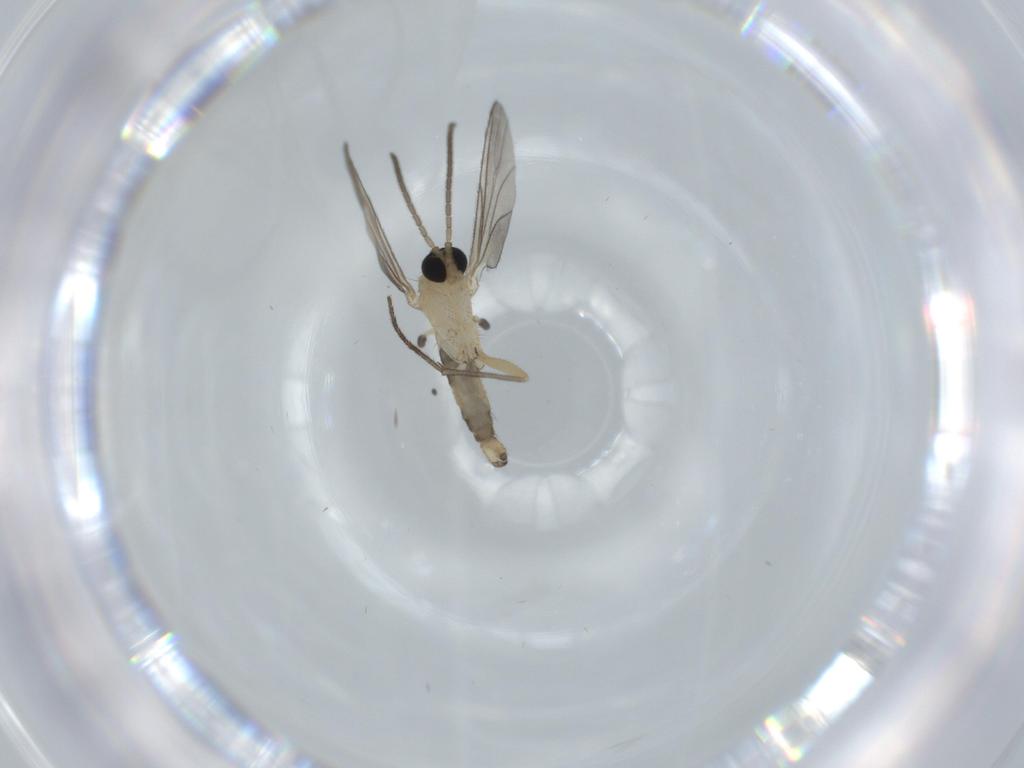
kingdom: Animalia
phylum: Arthropoda
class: Insecta
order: Diptera
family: Sciaridae
